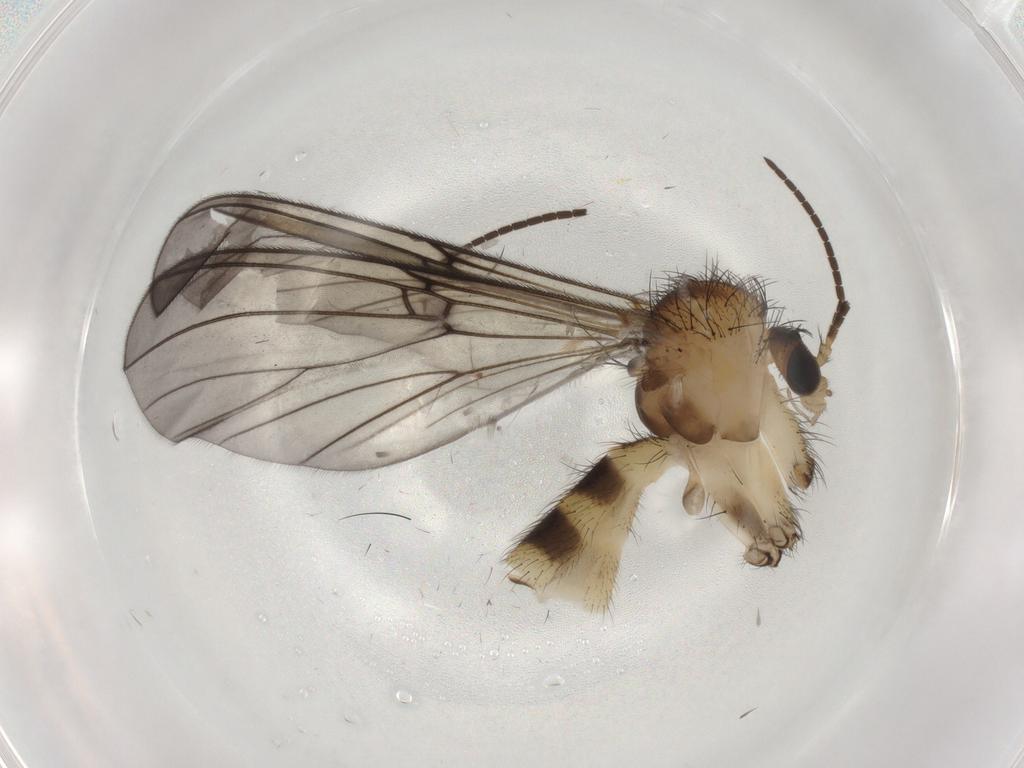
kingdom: Animalia
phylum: Arthropoda
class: Insecta
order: Diptera
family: Mycetophilidae
